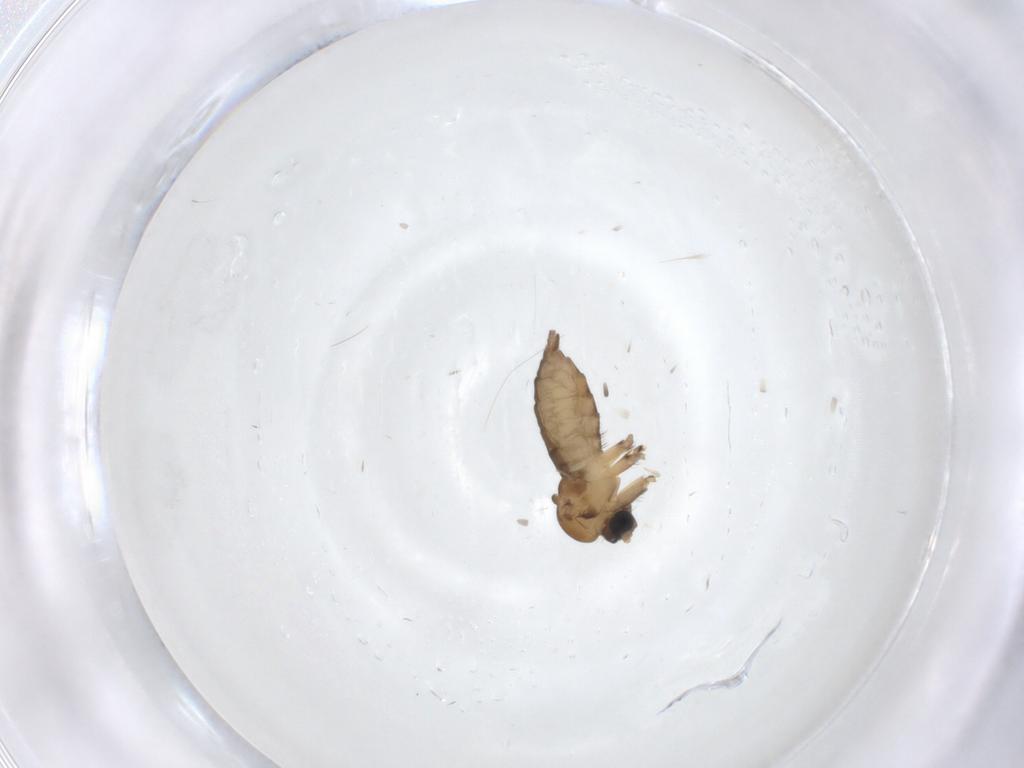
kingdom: Animalia
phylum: Arthropoda
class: Insecta
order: Diptera
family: Sciaridae
